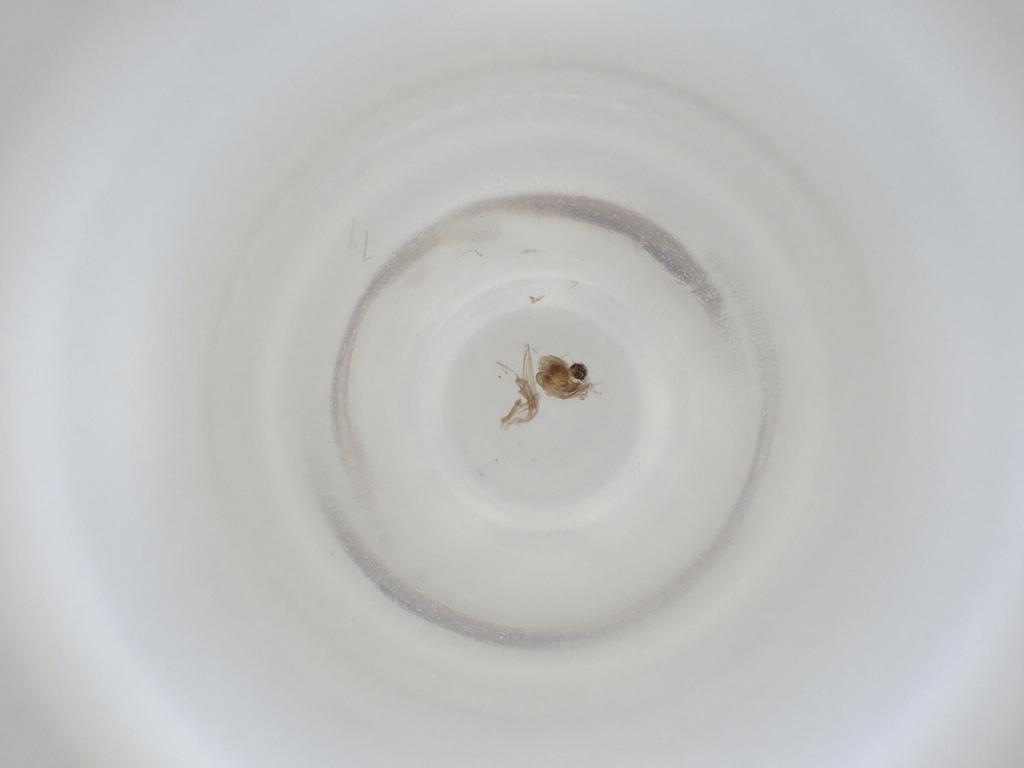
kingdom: Animalia
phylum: Arthropoda
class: Insecta
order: Diptera
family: Cecidomyiidae
